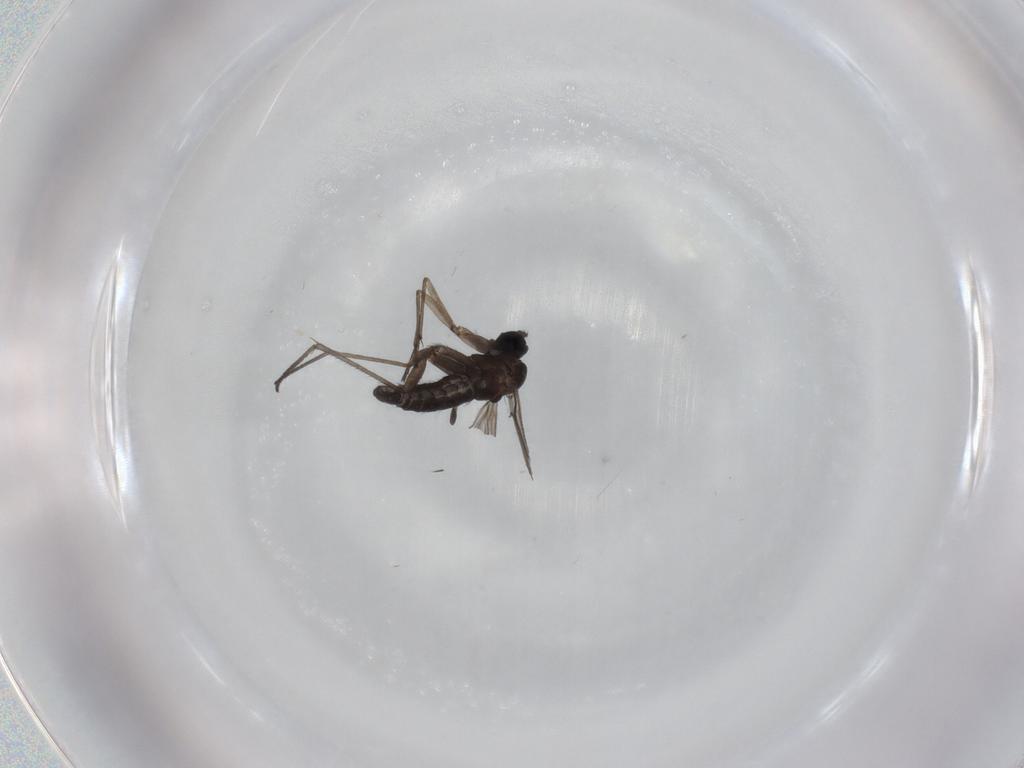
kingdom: Animalia
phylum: Arthropoda
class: Insecta
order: Diptera
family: Sciaridae
